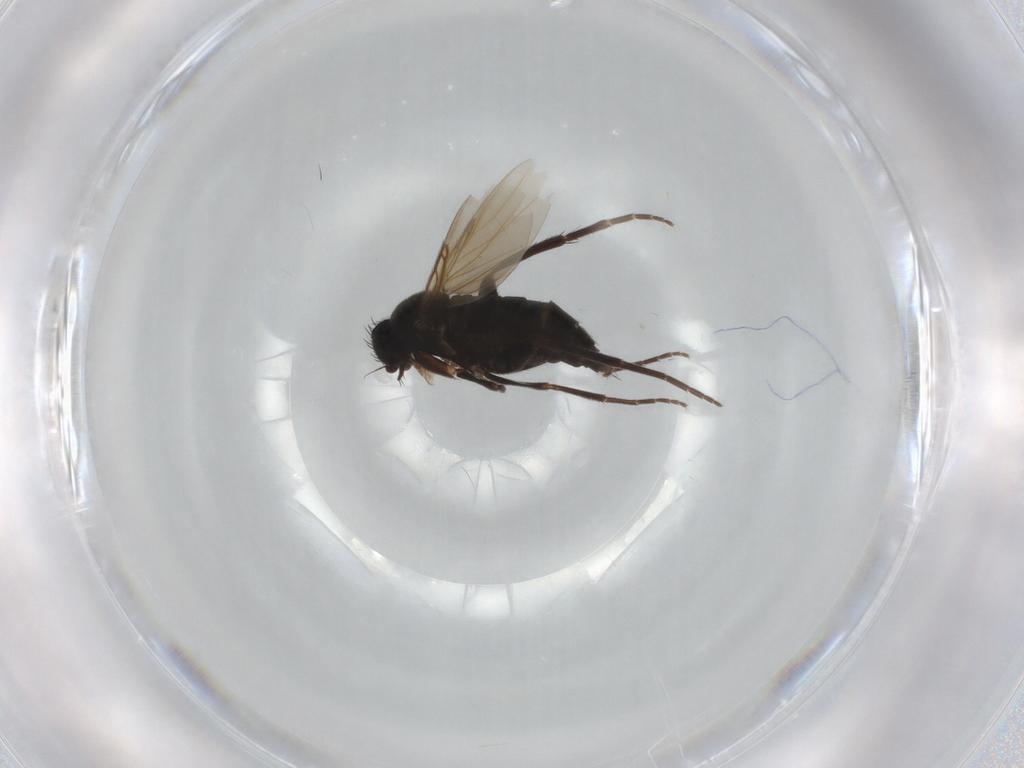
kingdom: Animalia
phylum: Arthropoda
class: Insecta
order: Diptera
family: Chironomidae
